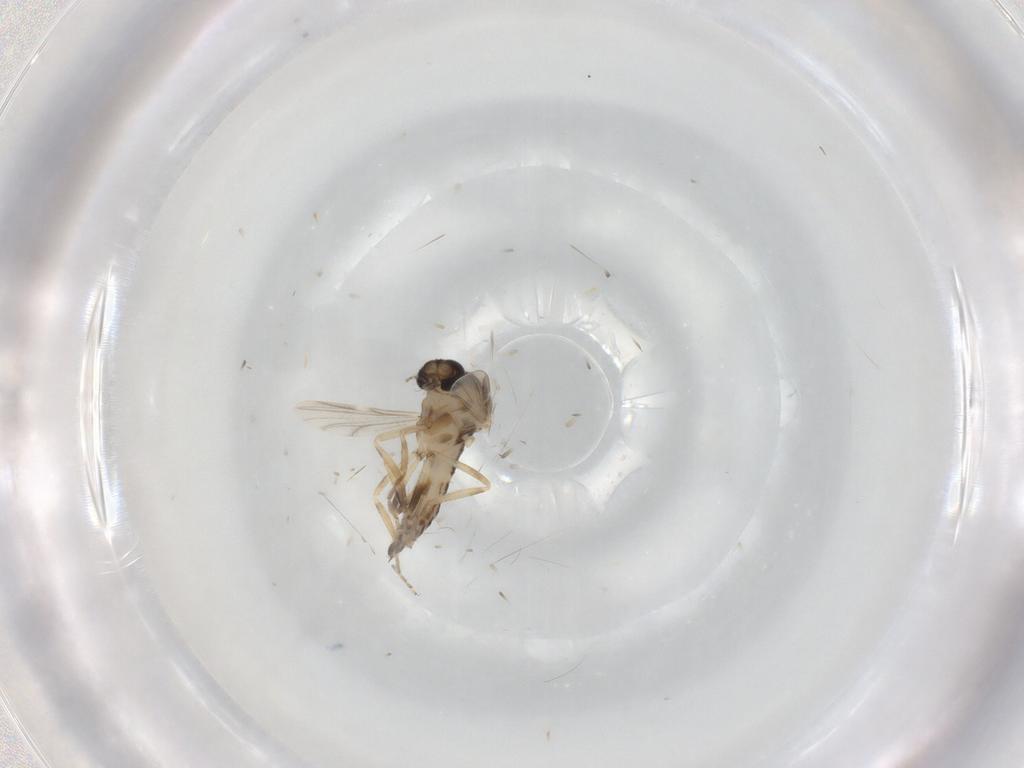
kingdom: Animalia
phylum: Arthropoda
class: Insecta
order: Diptera
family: Ceratopogonidae
